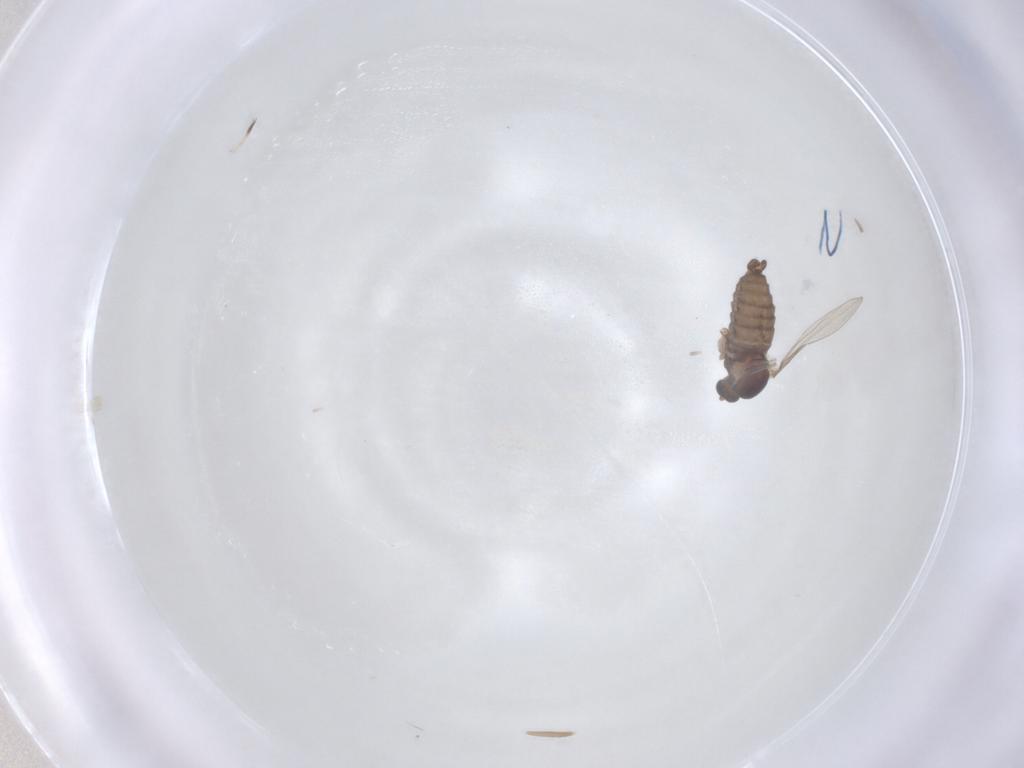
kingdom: Animalia
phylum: Arthropoda
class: Insecta
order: Diptera
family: Cecidomyiidae
